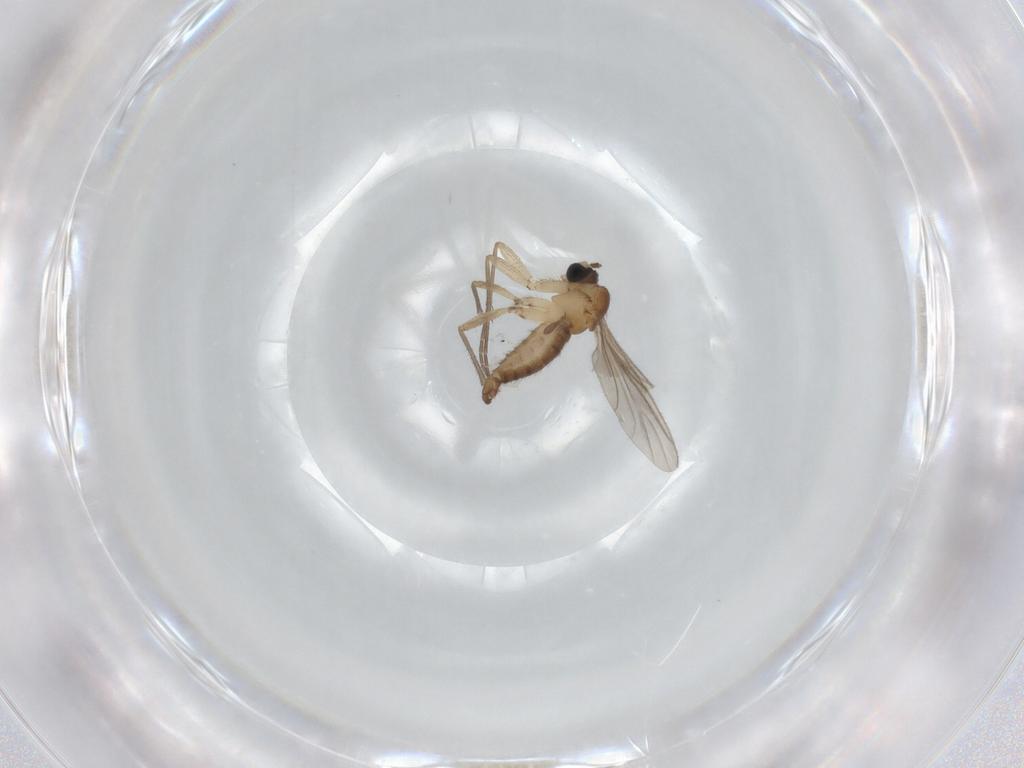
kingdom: Animalia
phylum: Arthropoda
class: Insecta
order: Diptera
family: Sciaridae
